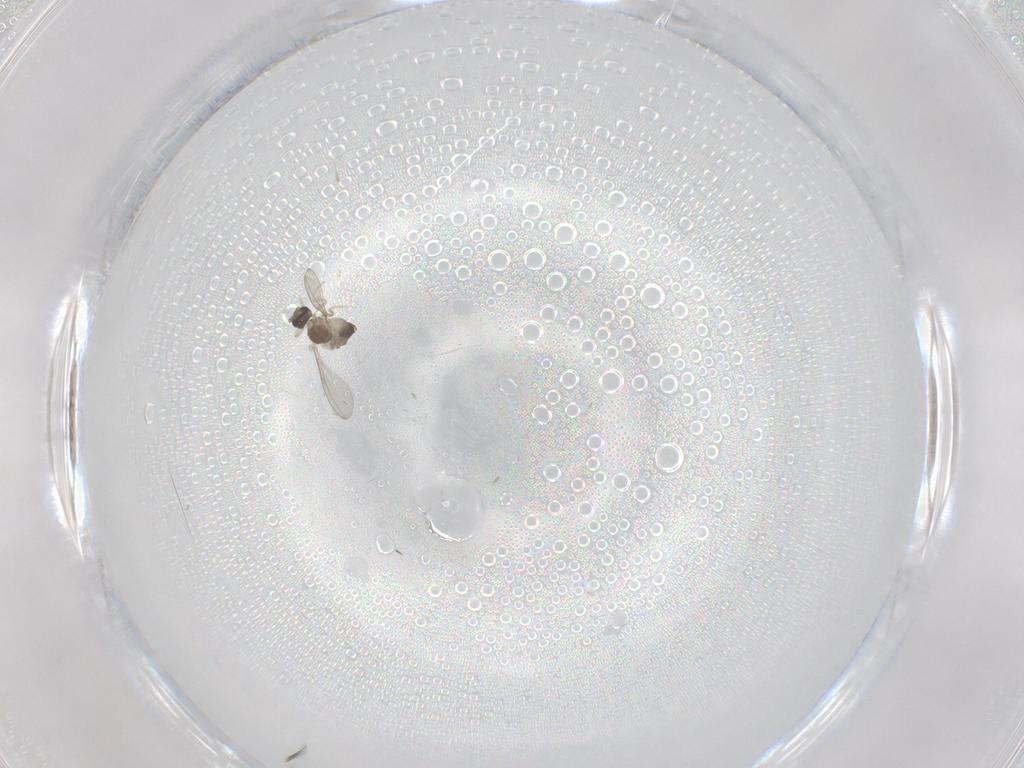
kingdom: Animalia
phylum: Arthropoda
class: Insecta
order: Diptera
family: Cecidomyiidae
